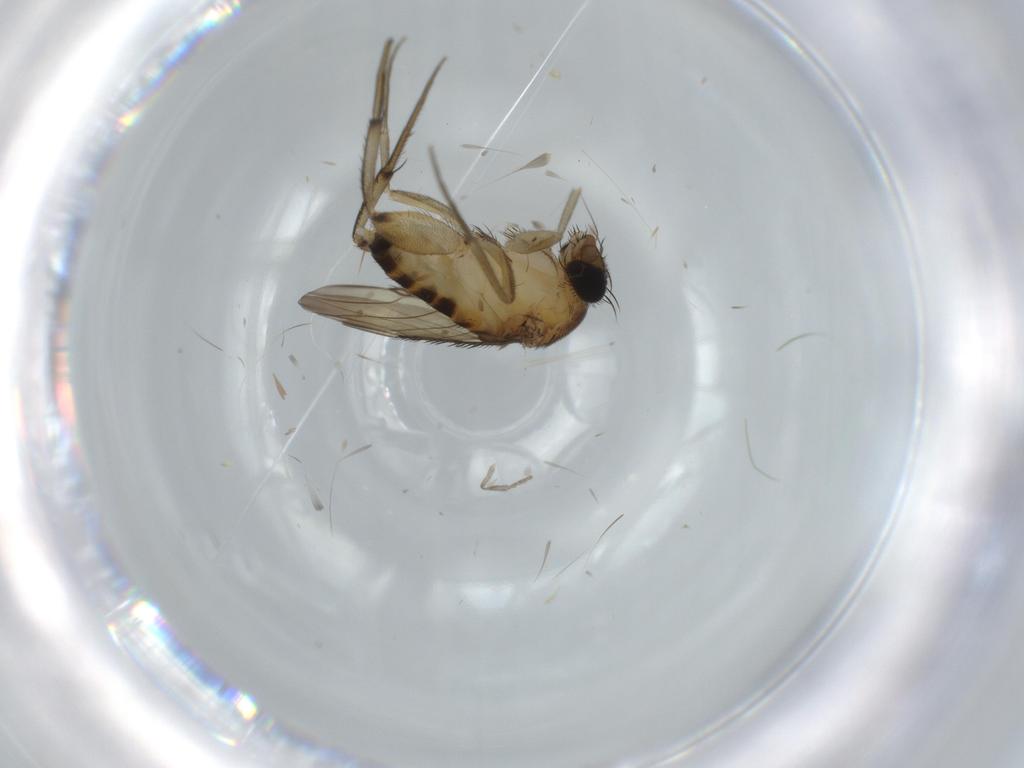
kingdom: Animalia
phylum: Arthropoda
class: Insecta
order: Diptera
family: Phoridae
